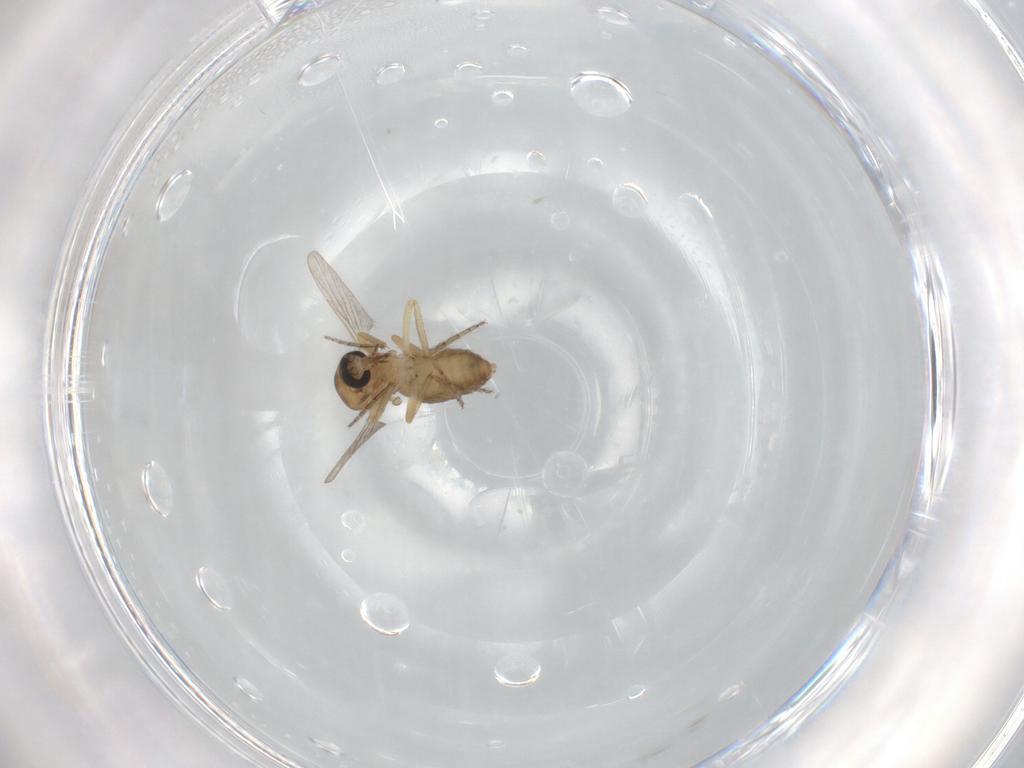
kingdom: Animalia
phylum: Arthropoda
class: Insecta
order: Diptera
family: Ceratopogonidae
